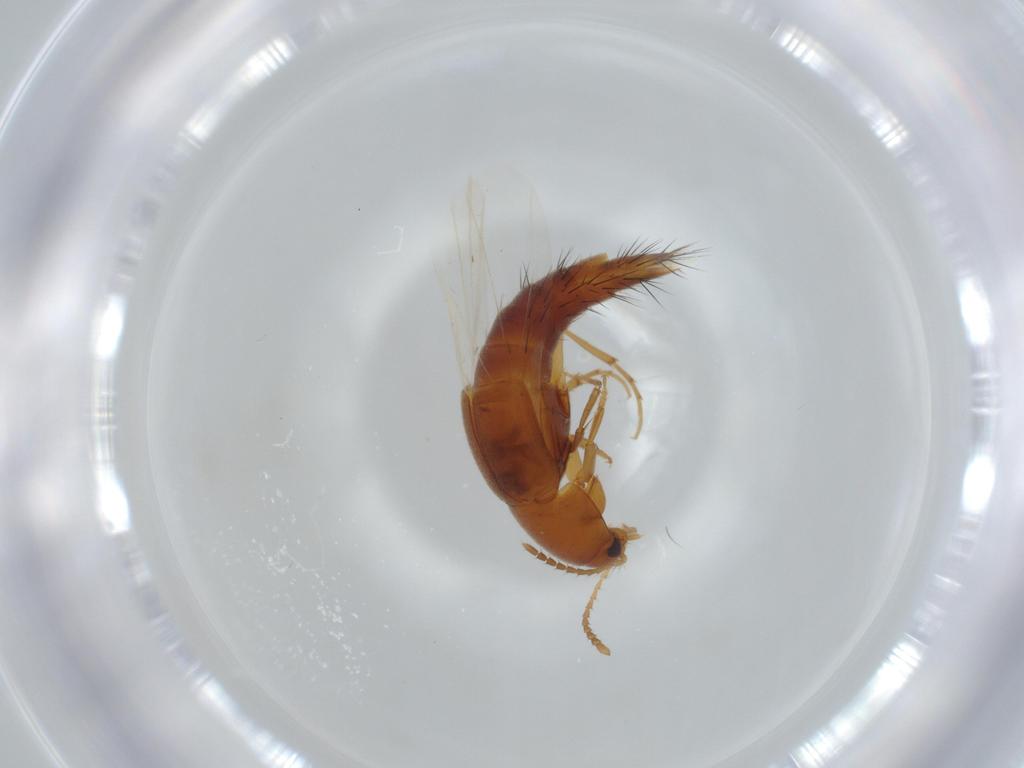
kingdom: Animalia
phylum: Arthropoda
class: Insecta
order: Coleoptera
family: Staphylinidae
